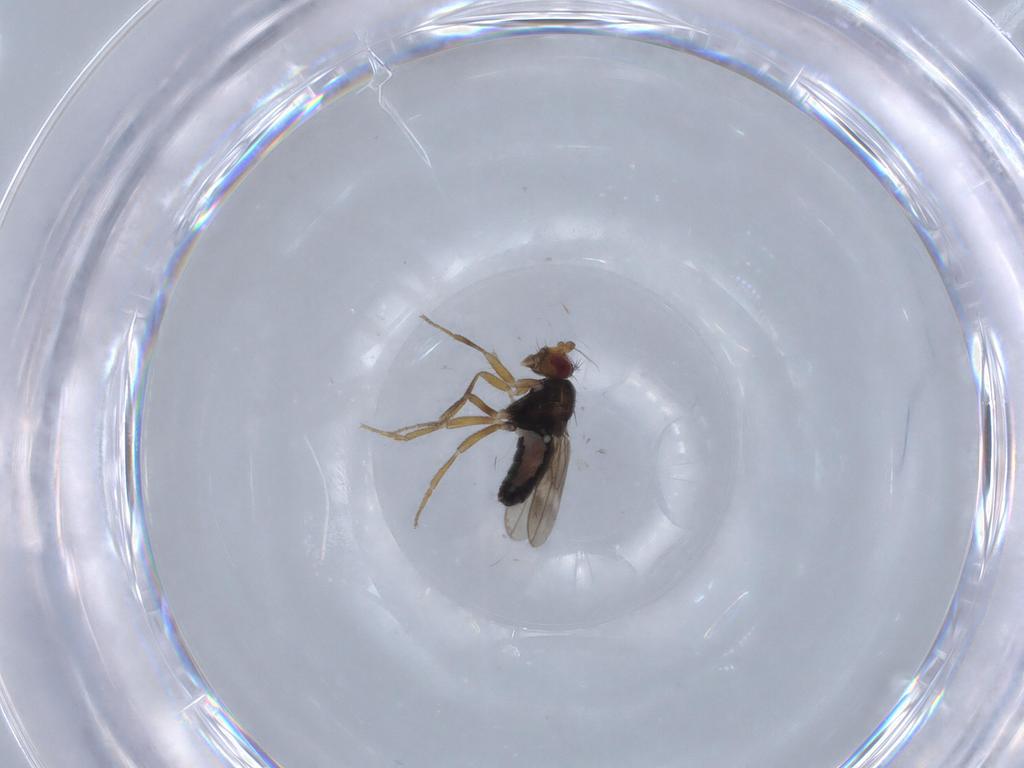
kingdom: Animalia
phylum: Arthropoda
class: Insecta
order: Diptera
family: Sphaeroceridae
